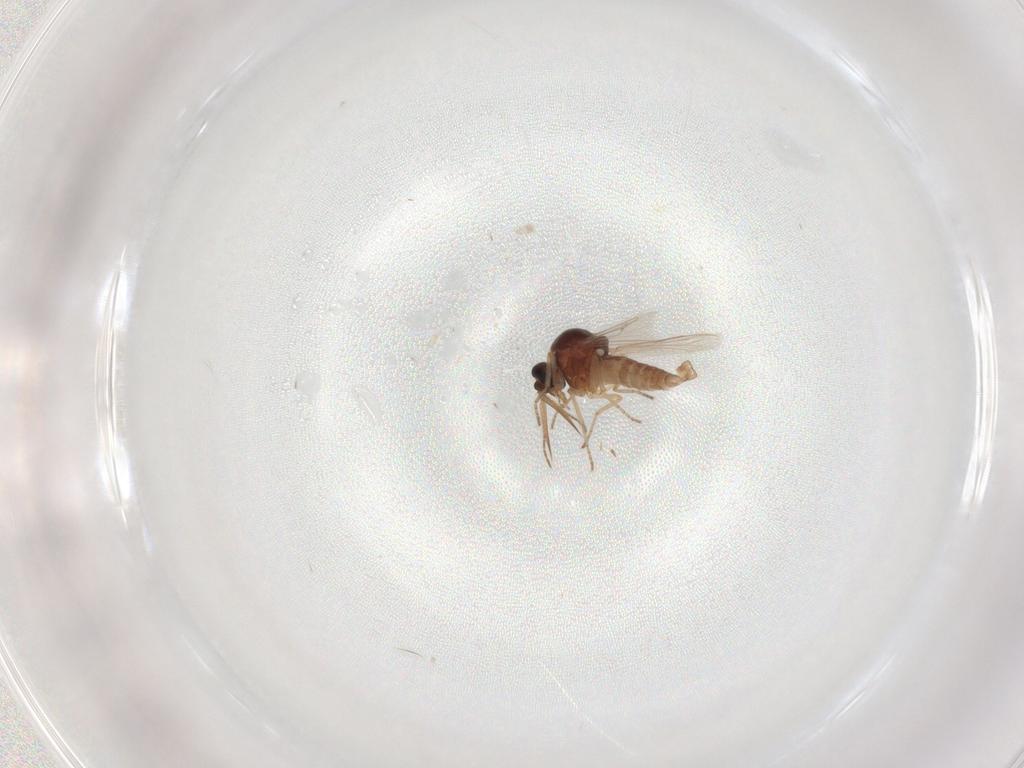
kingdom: Animalia
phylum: Arthropoda
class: Insecta
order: Diptera
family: Ceratopogonidae
